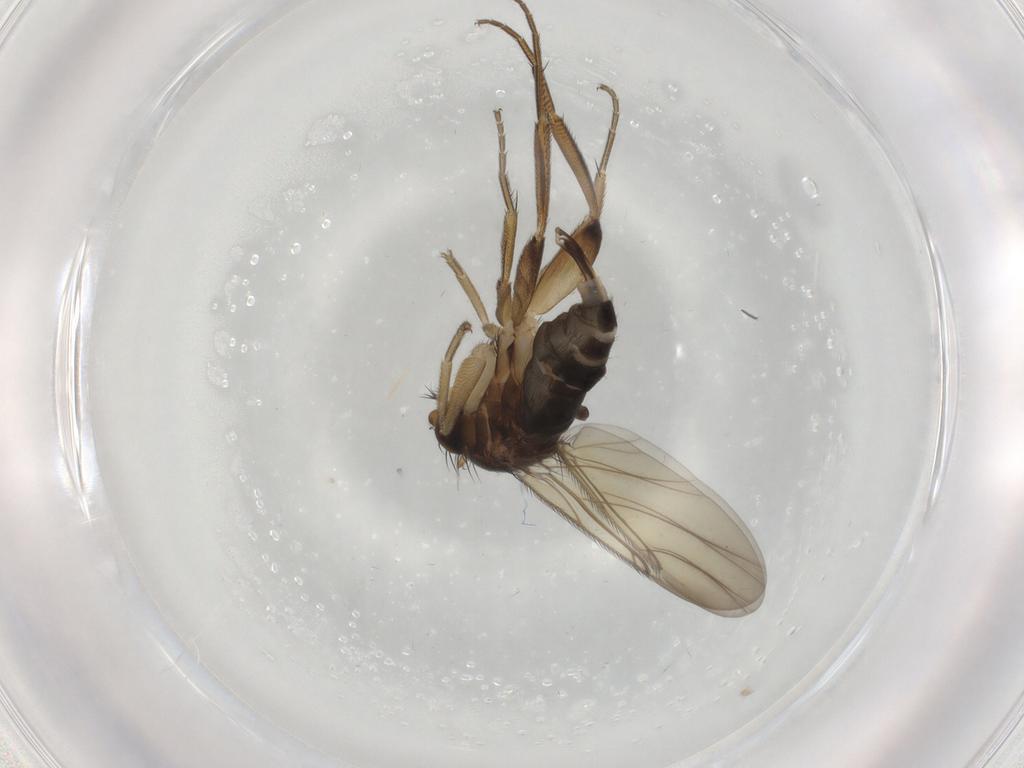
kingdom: Animalia
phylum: Arthropoda
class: Insecta
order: Diptera
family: Phoridae
